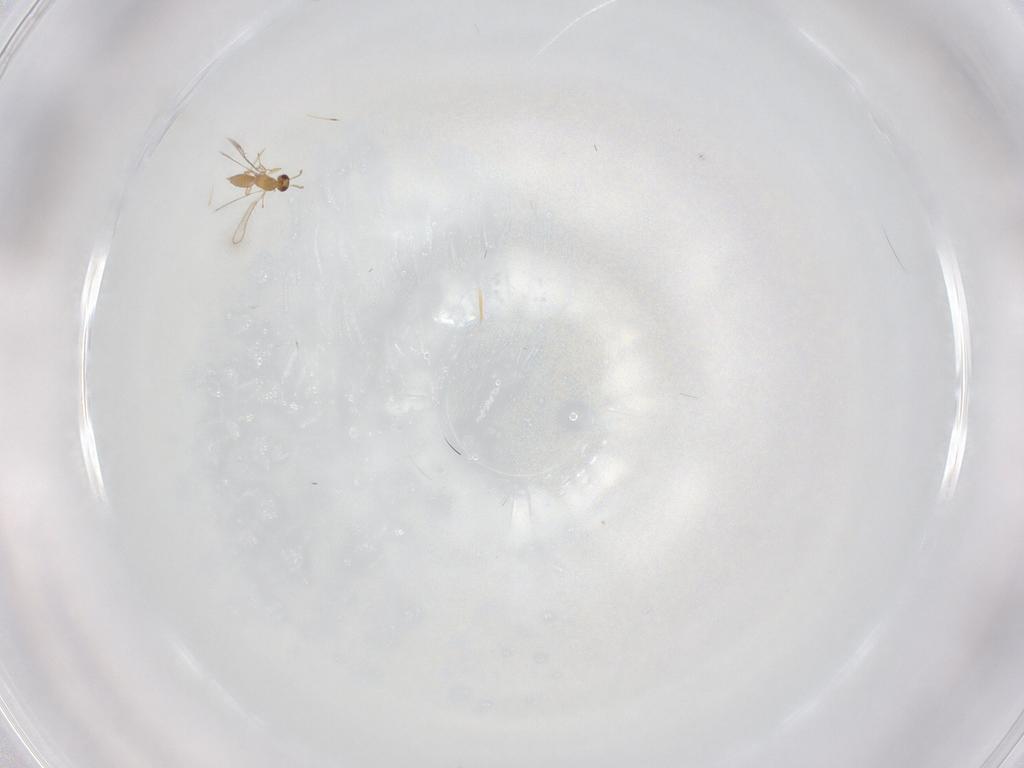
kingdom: Animalia
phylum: Arthropoda
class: Insecta
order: Hymenoptera
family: Mymaridae
